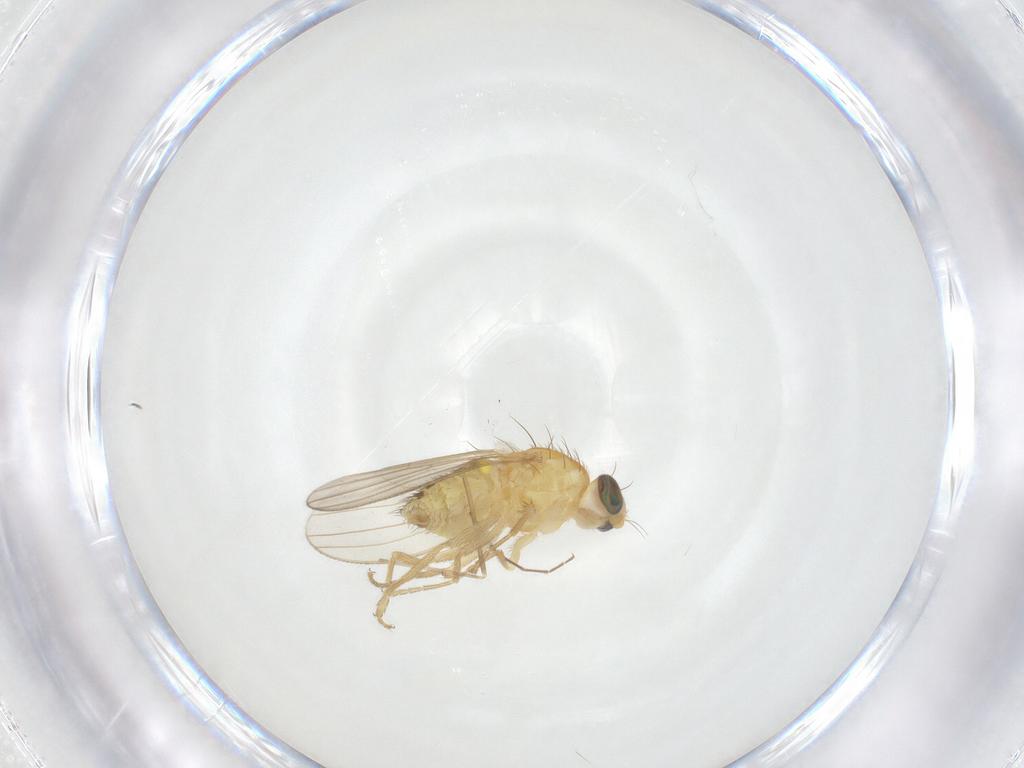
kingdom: Animalia
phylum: Arthropoda
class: Insecta
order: Diptera
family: Chyromyidae
